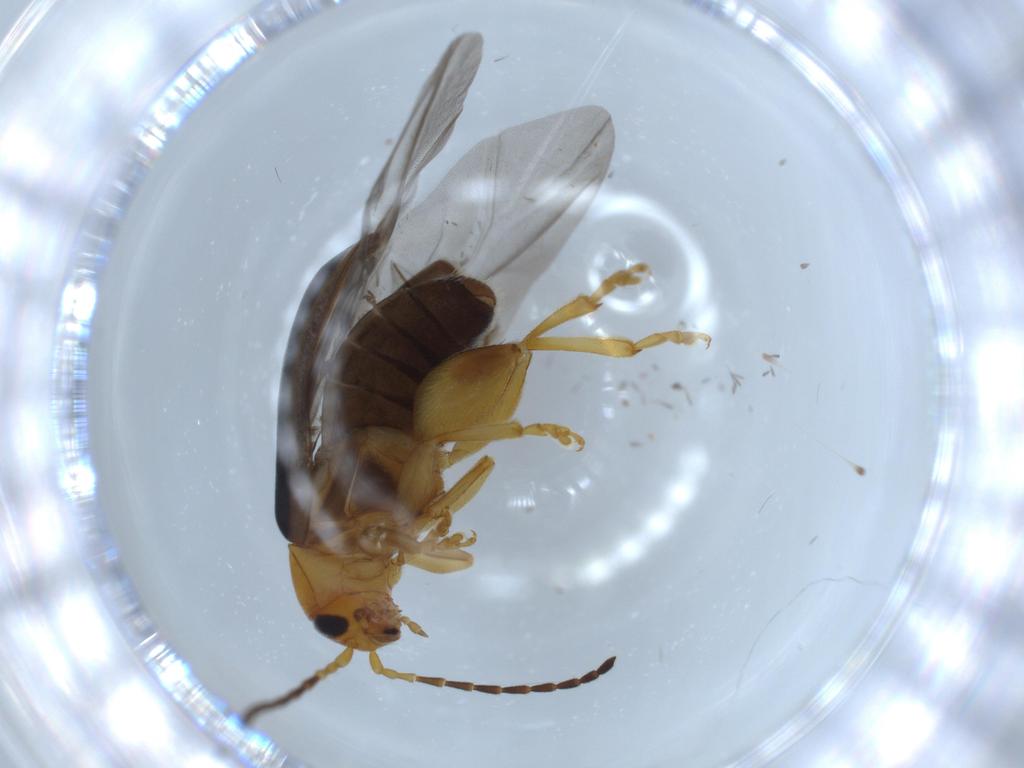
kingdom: Animalia
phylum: Arthropoda
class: Insecta
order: Coleoptera
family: Chrysomelidae
